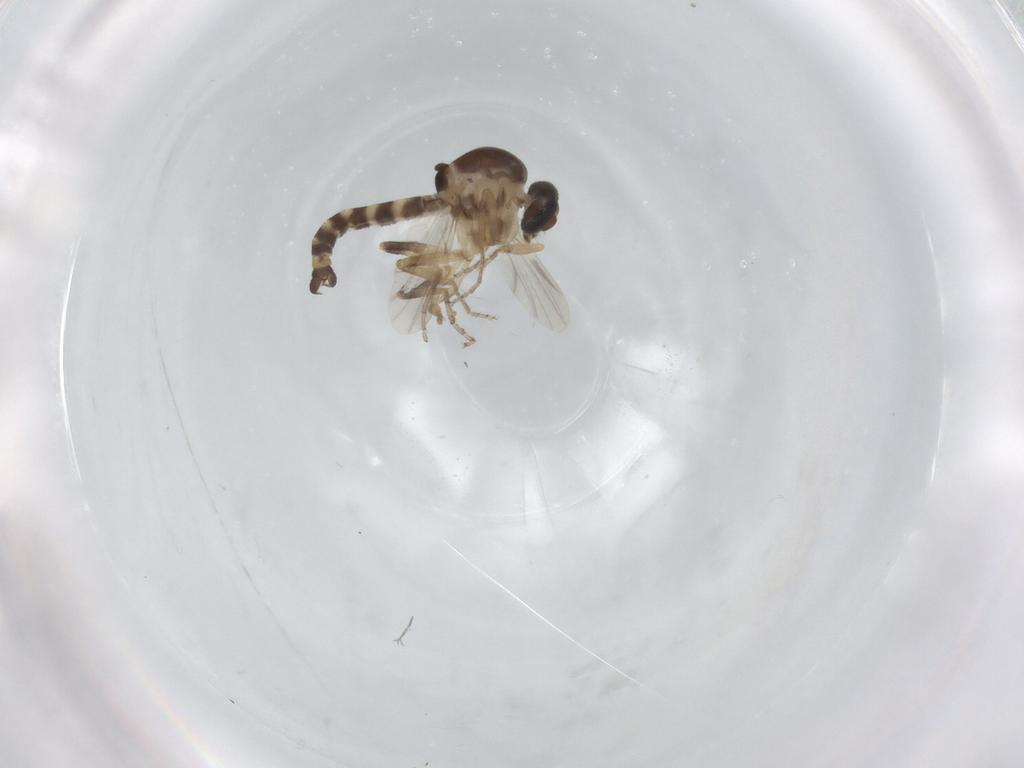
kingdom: Animalia
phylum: Arthropoda
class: Insecta
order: Diptera
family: Ceratopogonidae
